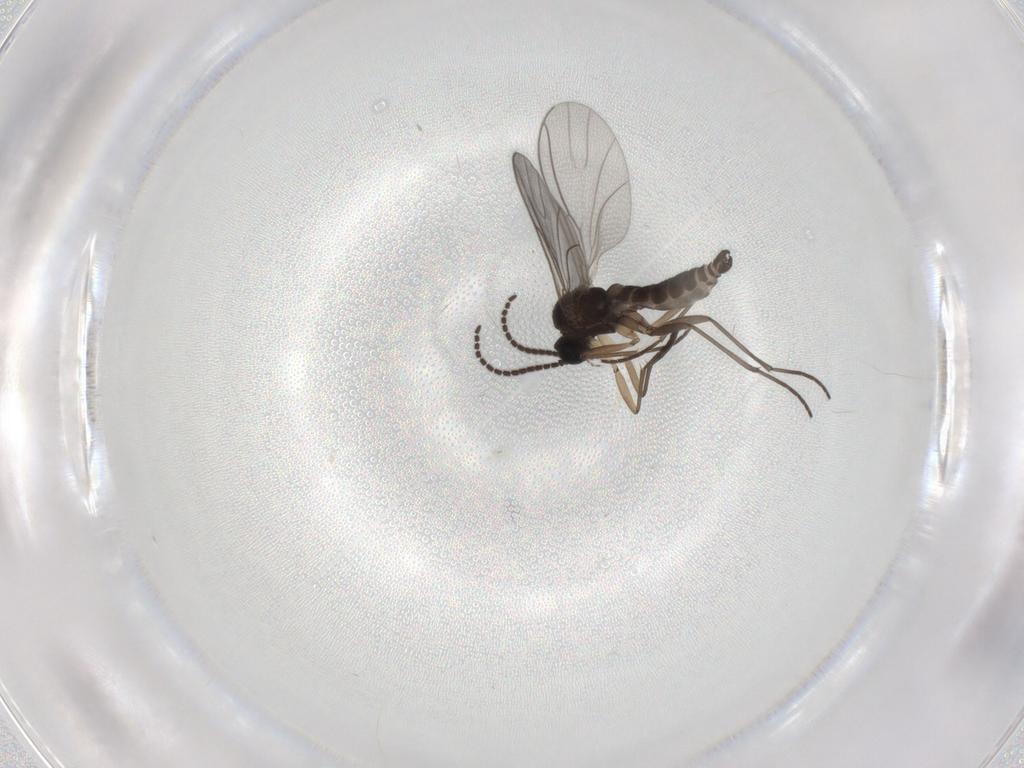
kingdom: Animalia
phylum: Arthropoda
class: Insecta
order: Diptera
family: Sciaridae
